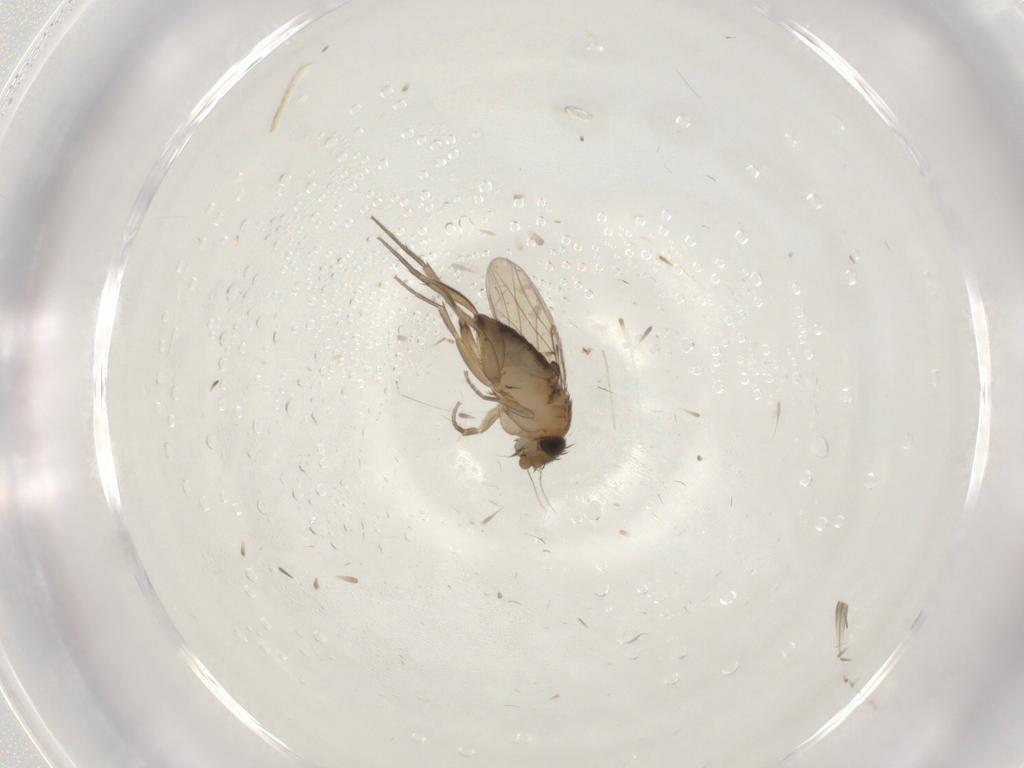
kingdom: Animalia
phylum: Arthropoda
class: Insecta
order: Diptera
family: Phoridae
